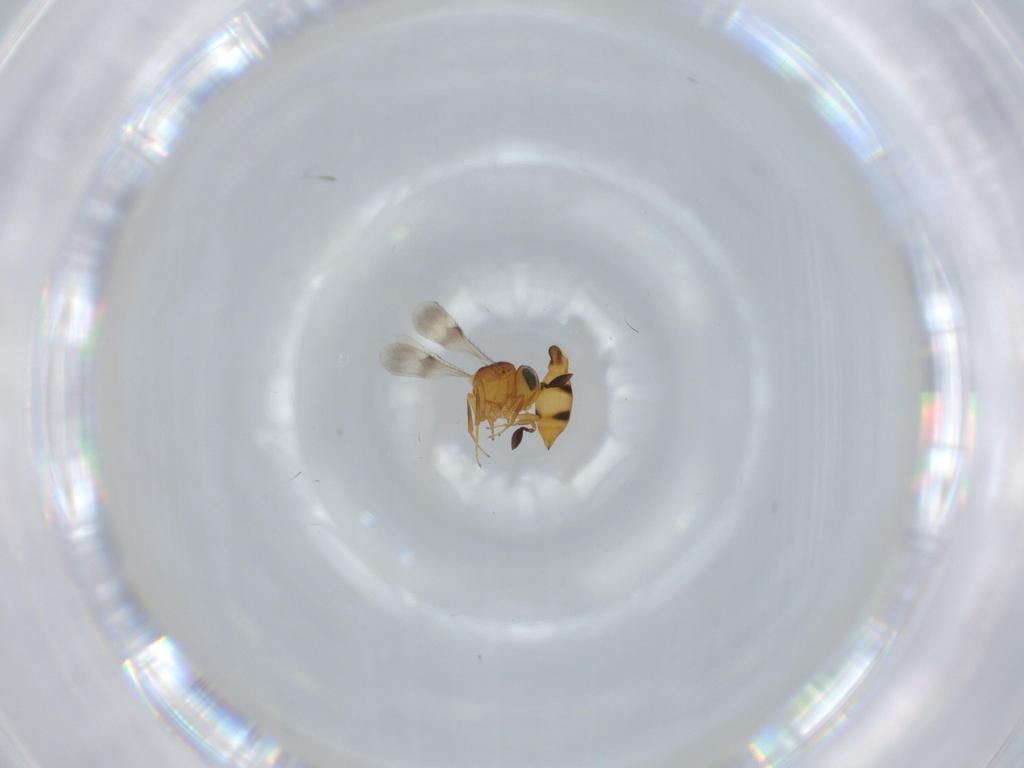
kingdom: Animalia
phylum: Arthropoda
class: Insecta
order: Hymenoptera
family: Scelionidae
